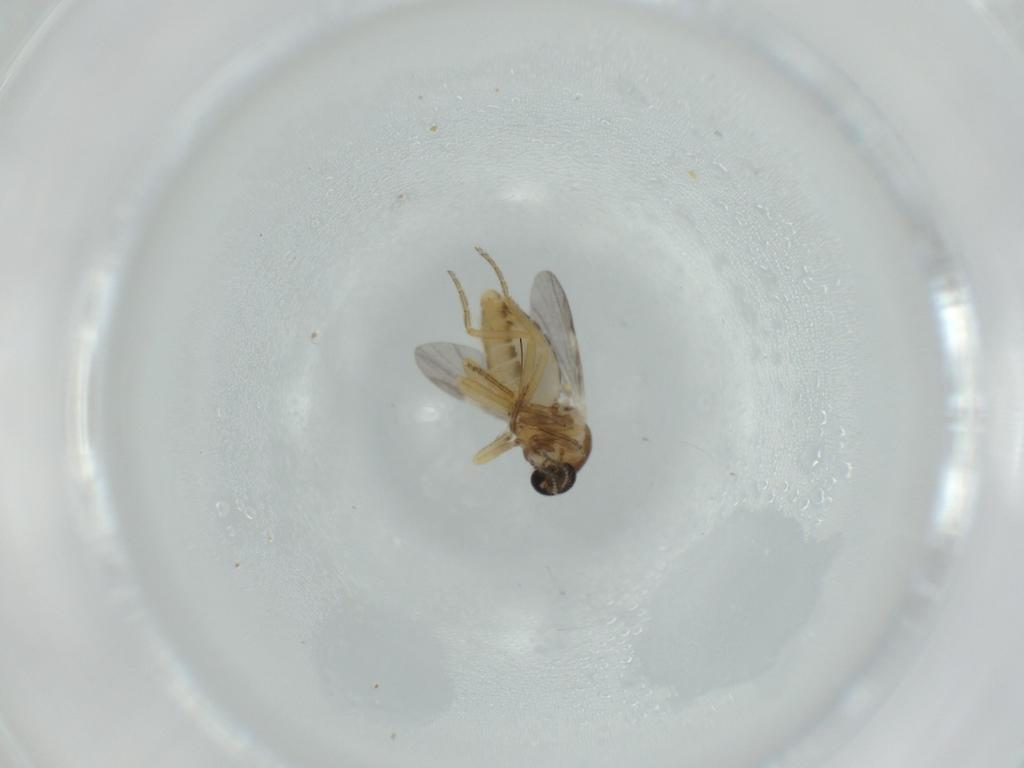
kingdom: Animalia
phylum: Arthropoda
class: Insecta
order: Diptera
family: Ceratopogonidae
